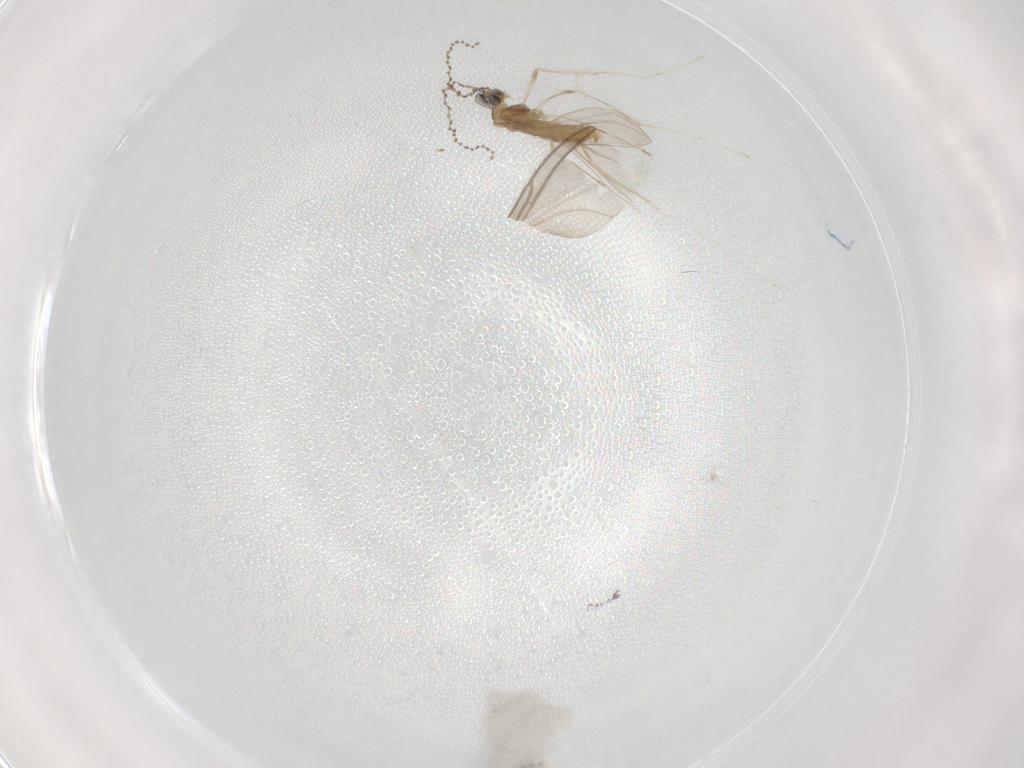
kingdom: Animalia
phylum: Arthropoda
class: Insecta
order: Diptera
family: Cecidomyiidae
